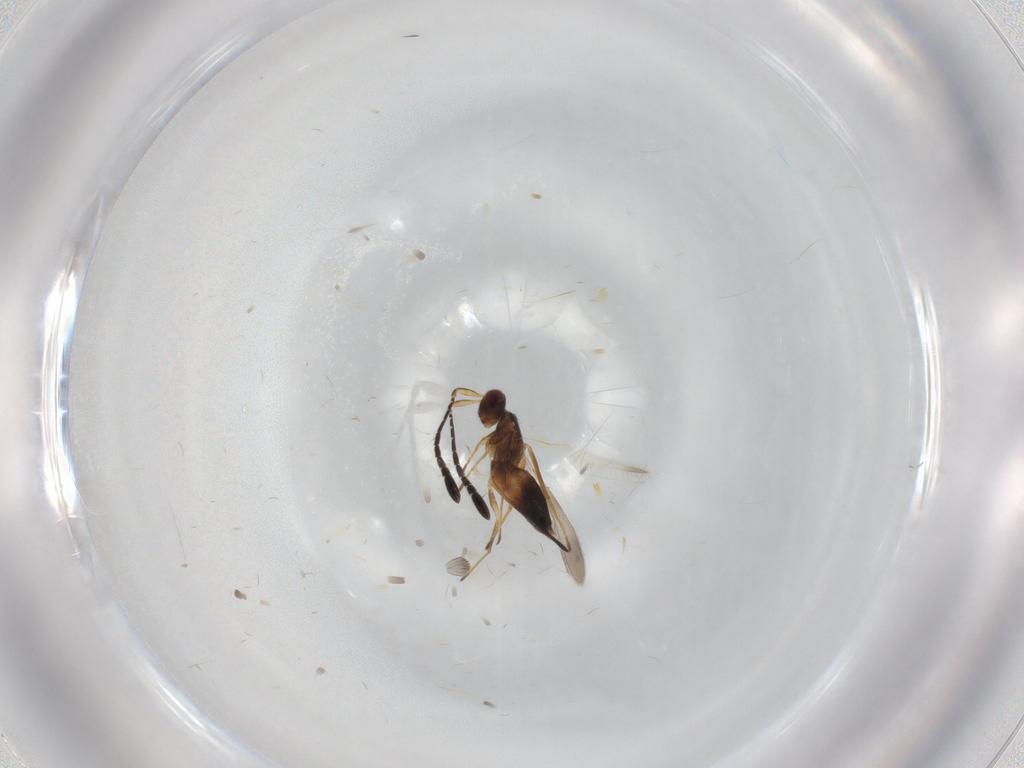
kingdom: Animalia
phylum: Arthropoda
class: Insecta
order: Hymenoptera
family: Mymaridae
